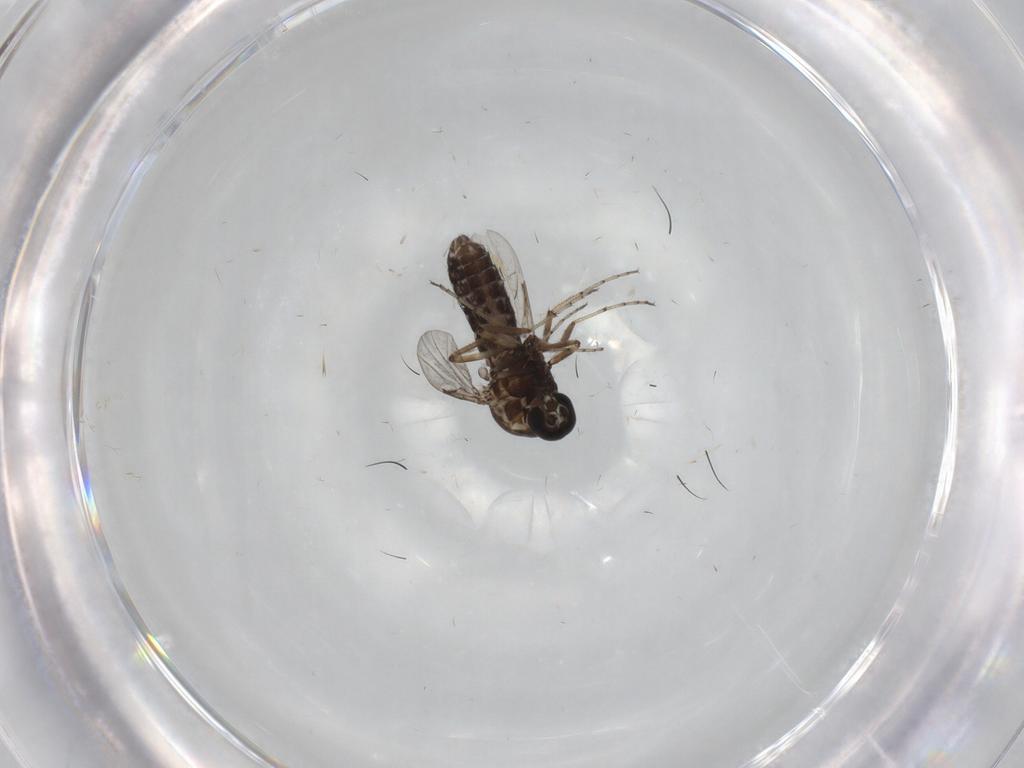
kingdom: Animalia
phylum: Arthropoda
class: Insecta
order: Diptera
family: Ceratopogonidae
